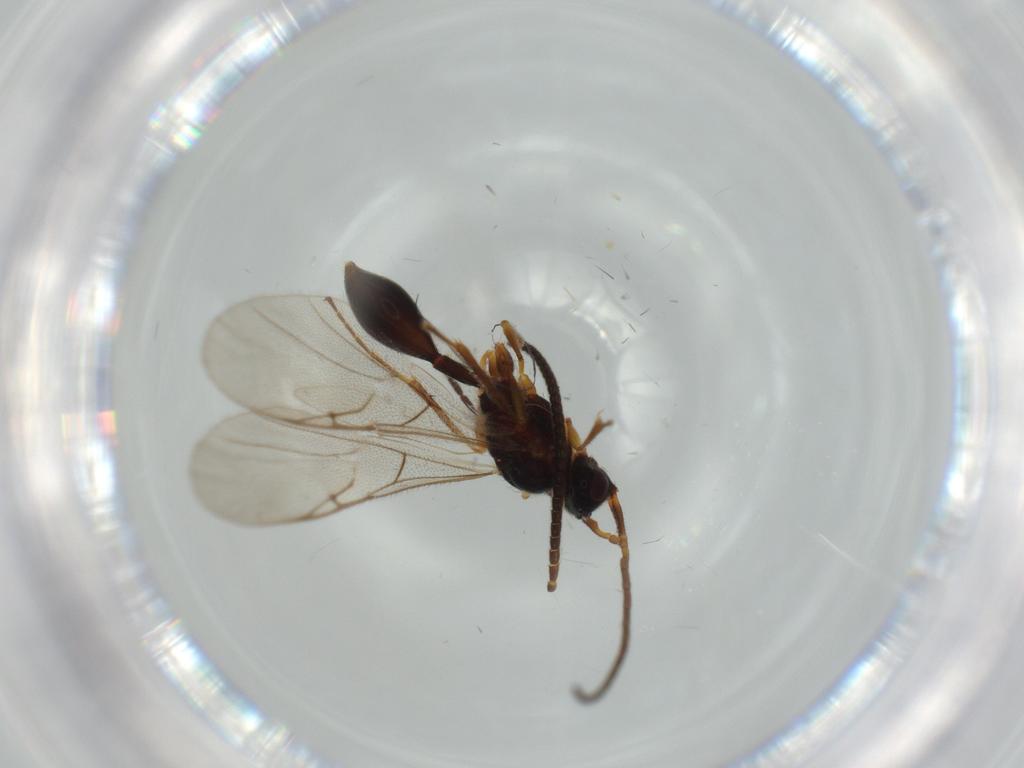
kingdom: Animalia
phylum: Arthropoda
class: Insecta
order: Hymenoptera
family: Ichneumonidae
